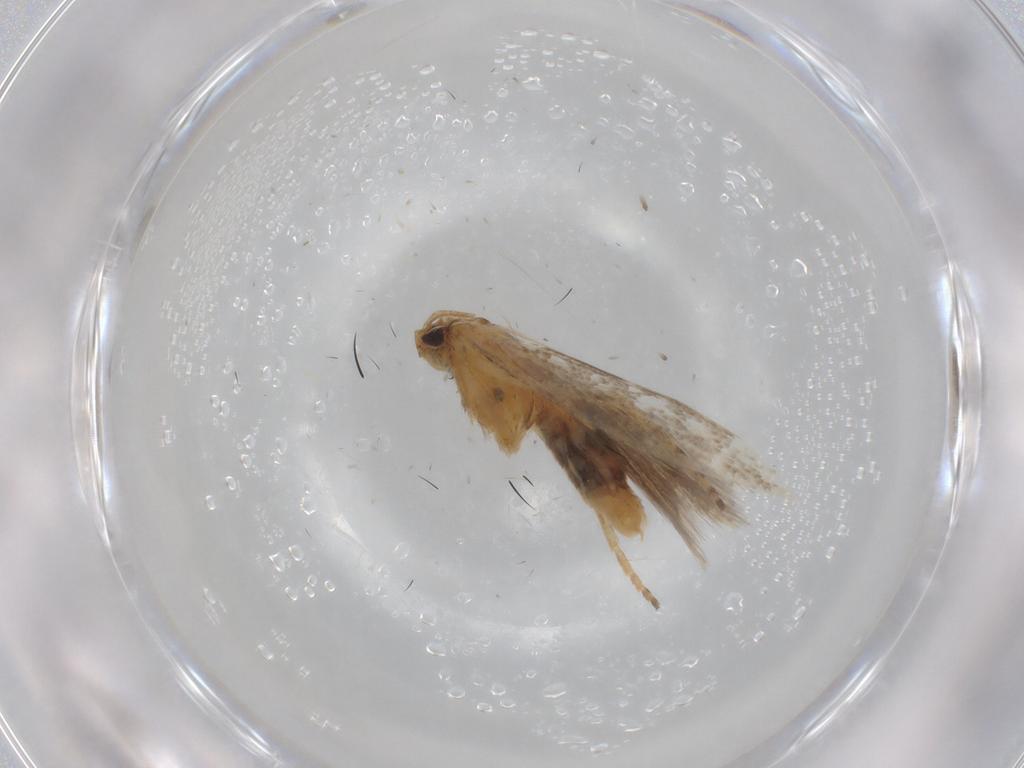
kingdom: Animalia
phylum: Arthropoda
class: Insecta
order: Lepidoptera
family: Gelechiidae
